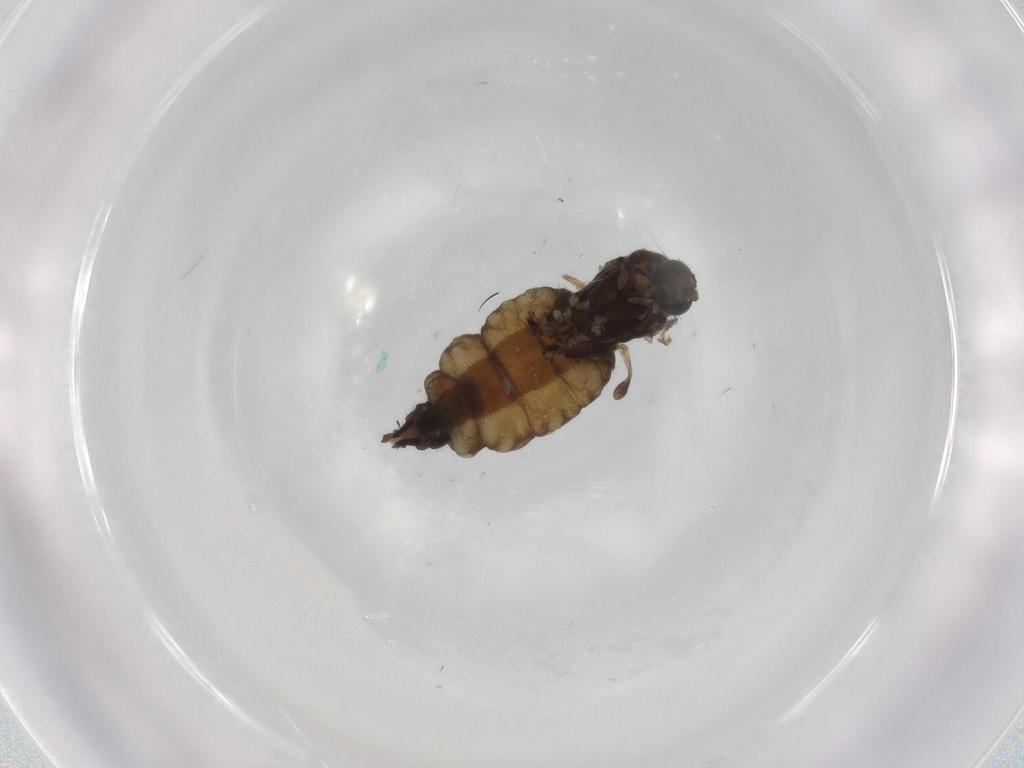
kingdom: Animalia
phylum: Arthropoda
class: Insecta
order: Diptera
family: Sciaridae
